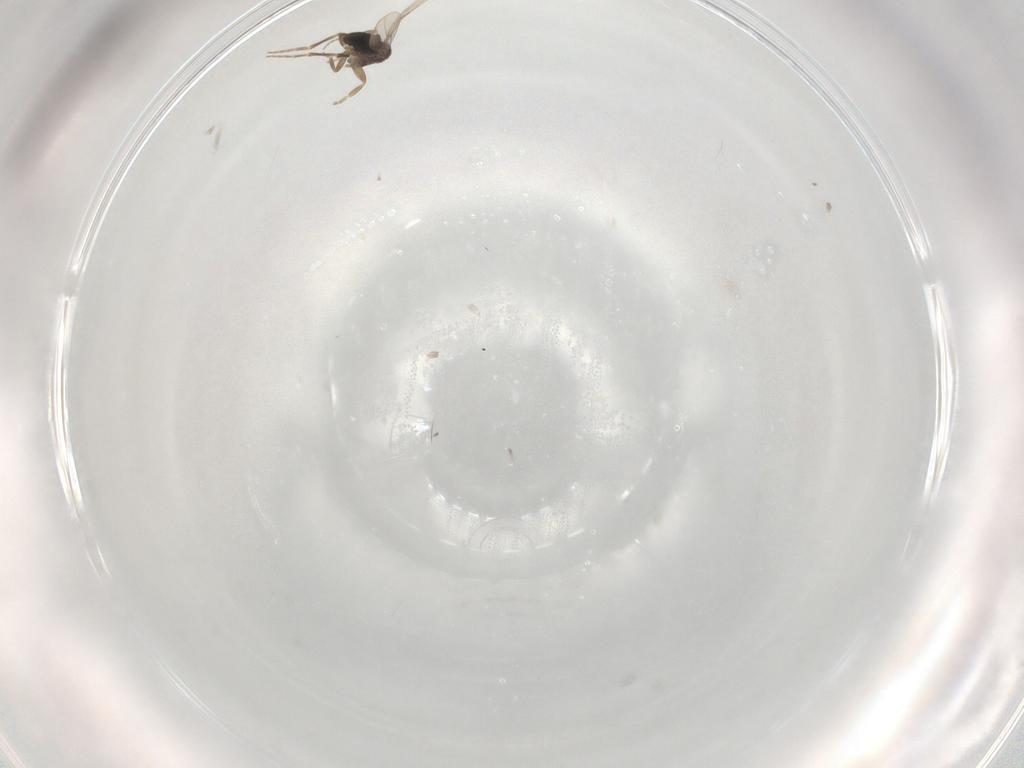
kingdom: Animalia
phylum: Arthropoda
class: Insecta
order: Diptera
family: Phoridae
